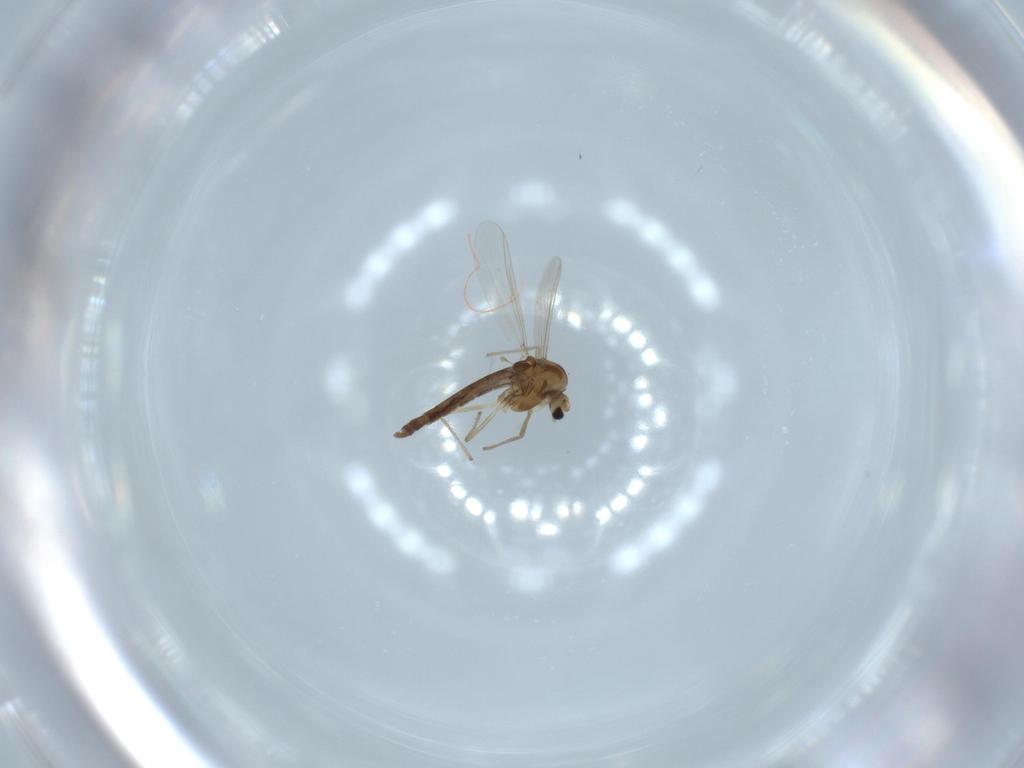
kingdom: Animalia
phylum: Arthropoda
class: Insecta
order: Diptera
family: Chironomidae
